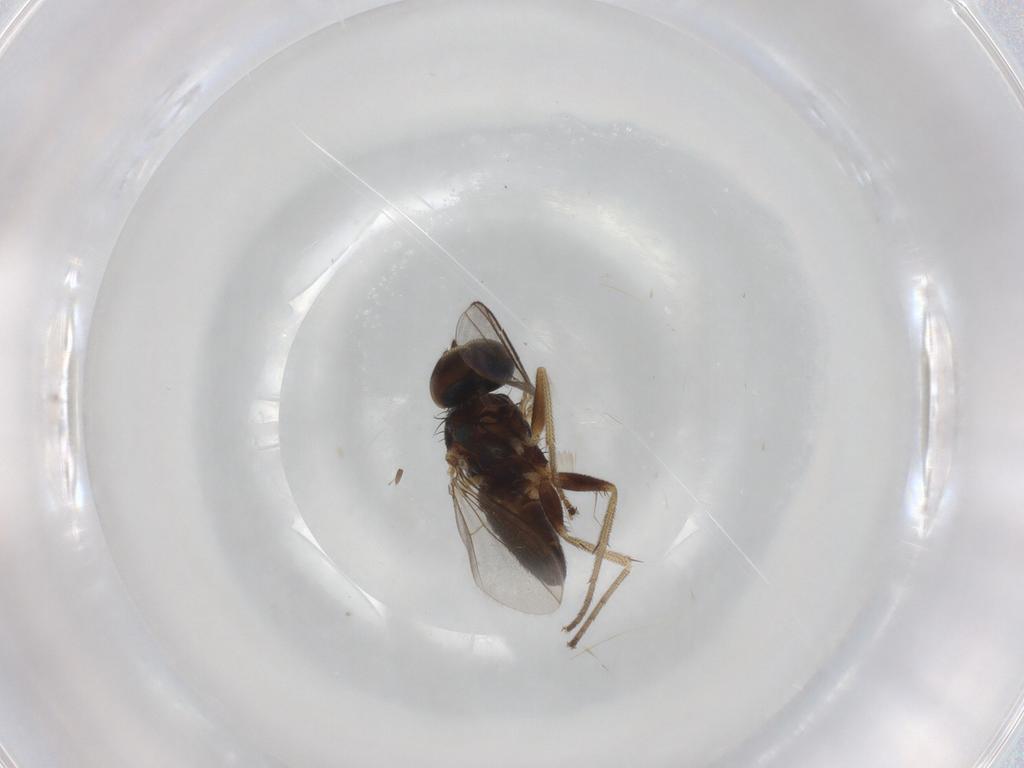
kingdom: Animalia
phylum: Arthropoda
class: Insecta
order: Diptera
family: Dolichopodidae
